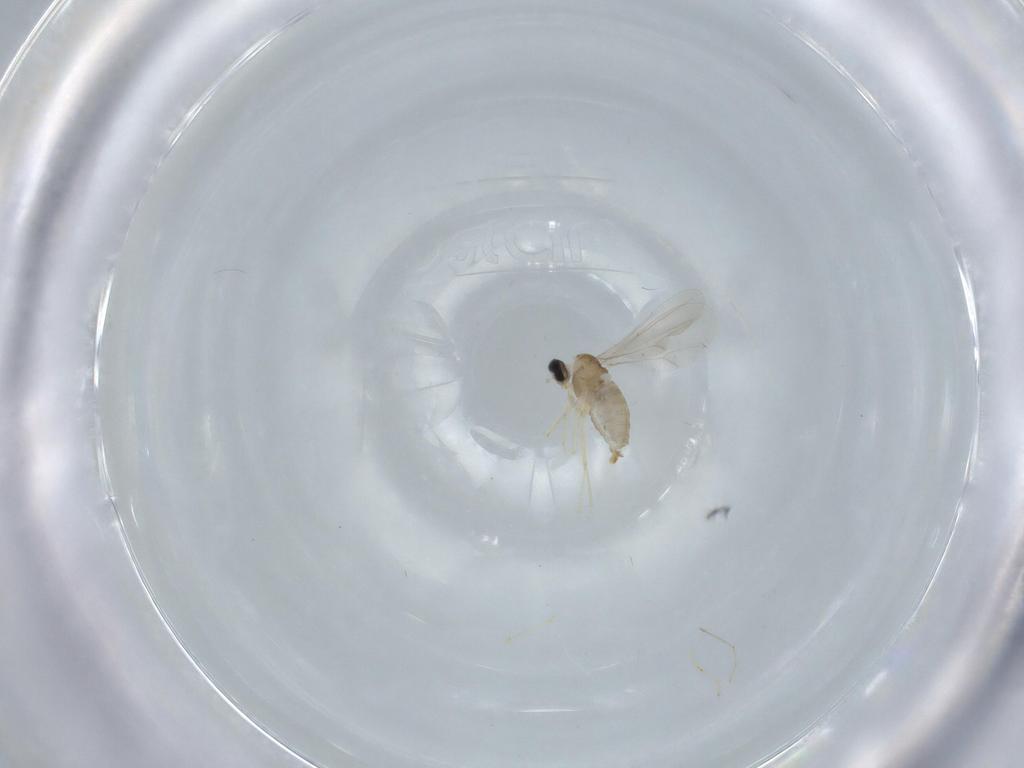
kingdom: Animalia
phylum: Arthropoda
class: Insecta
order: Diptera
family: Cecidomyiidae
